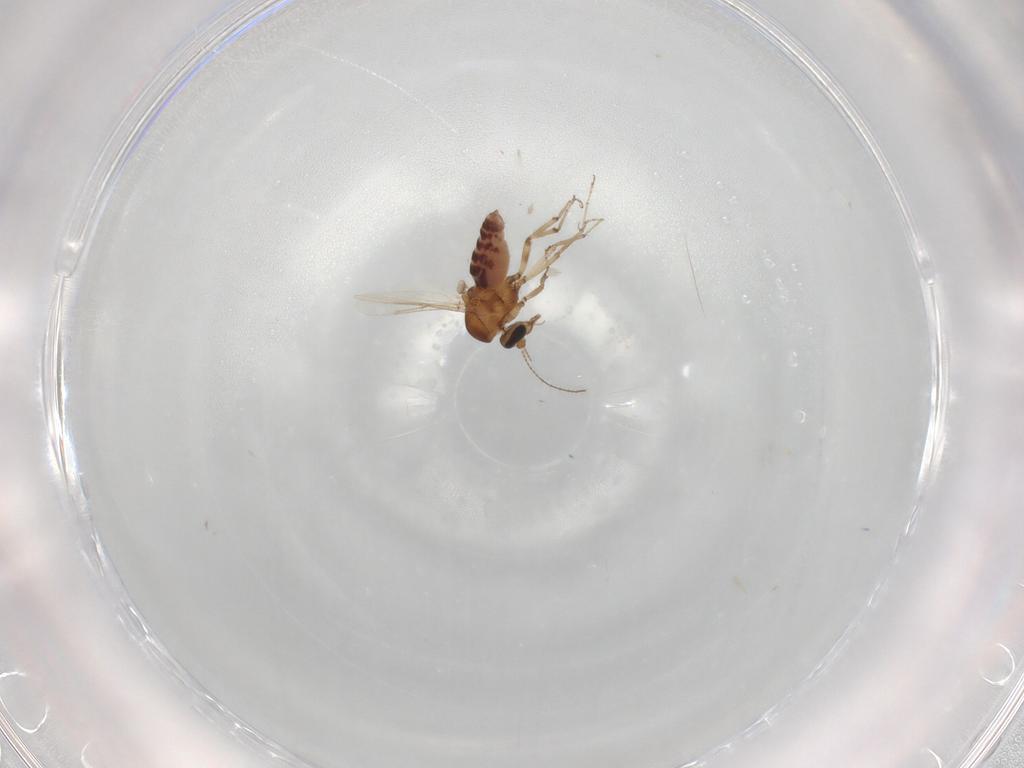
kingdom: Animalia
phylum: Arthropoda
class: Insecta
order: Diptera
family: Ceratopogonidae
